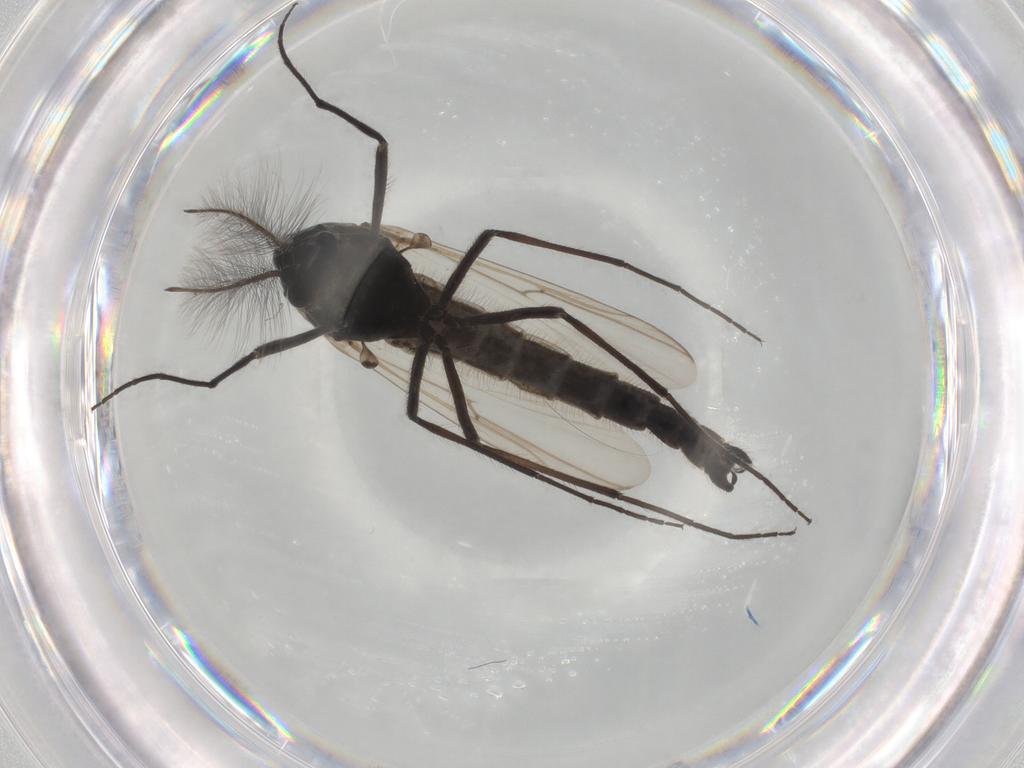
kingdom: Animalia
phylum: Arthropoda
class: Insecta
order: Diptera
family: Chironomidae
